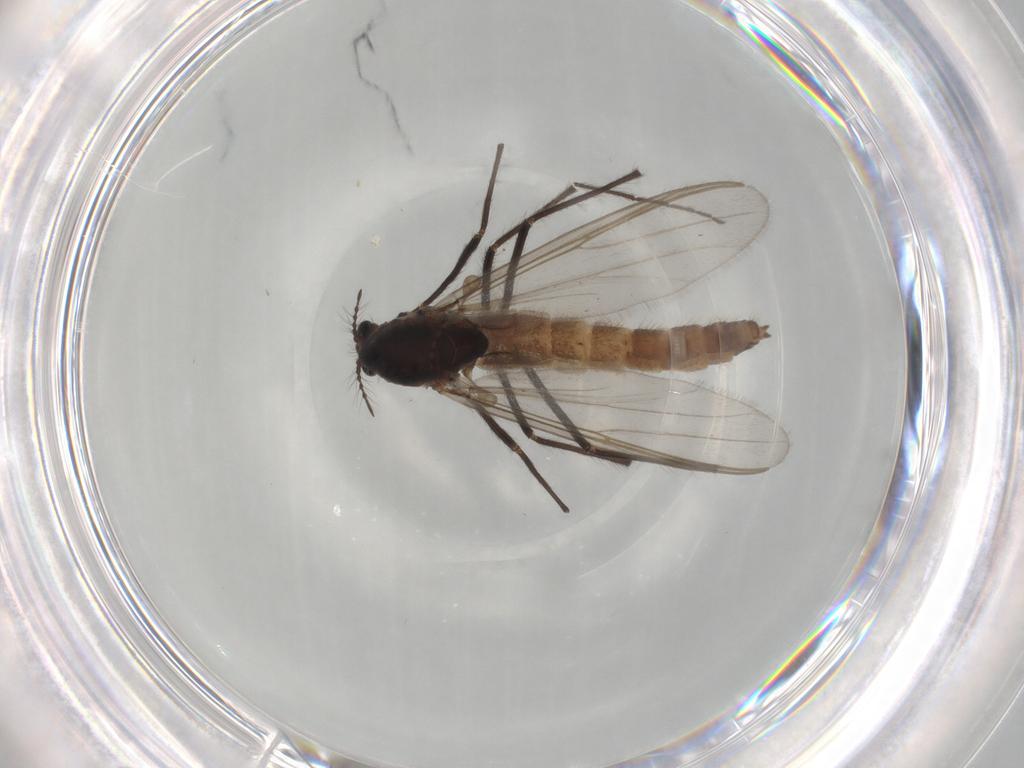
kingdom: Animalia
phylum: Arthropoda
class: Insecta
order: Diptera
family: Chironomidae
